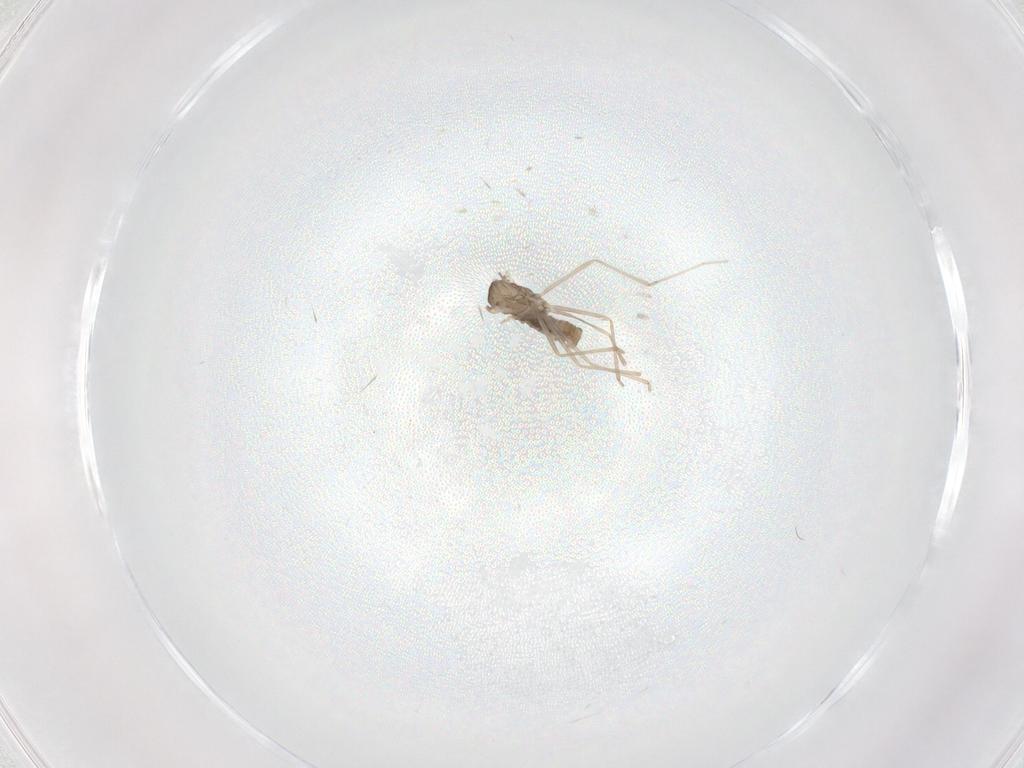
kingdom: Animalia
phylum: Arthropoda
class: Insecta
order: Diptera
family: Cecidomyiidae
